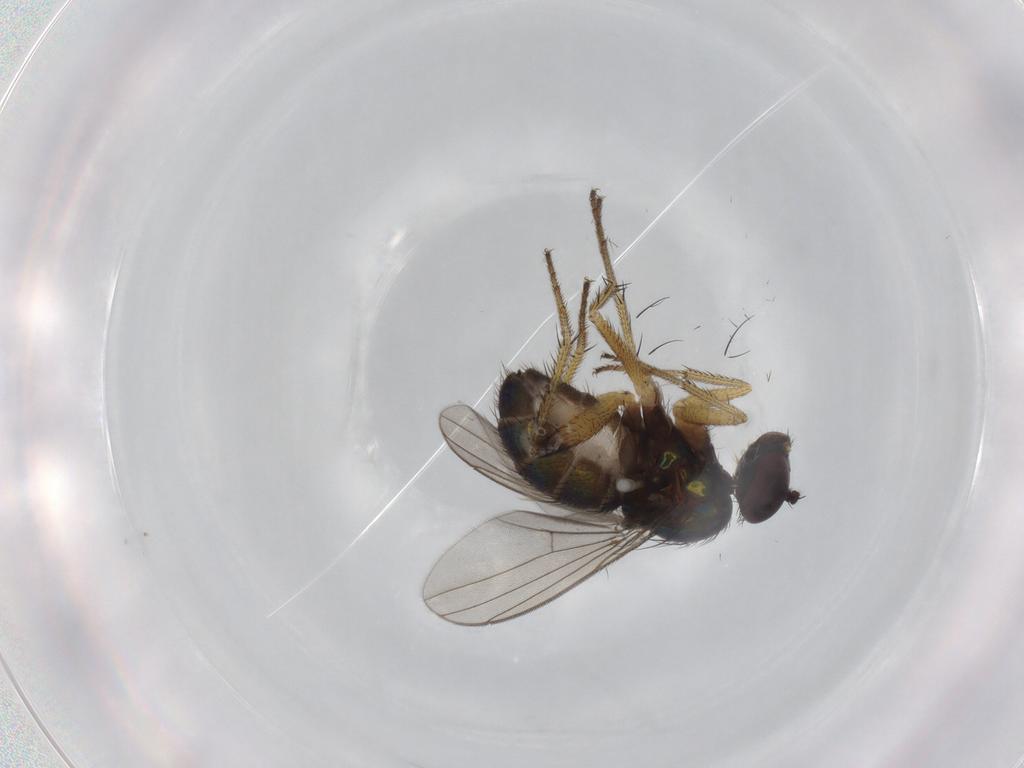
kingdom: Animalia
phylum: Arthropoda
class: Insecta
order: Diptera
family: Dolichopodidae
